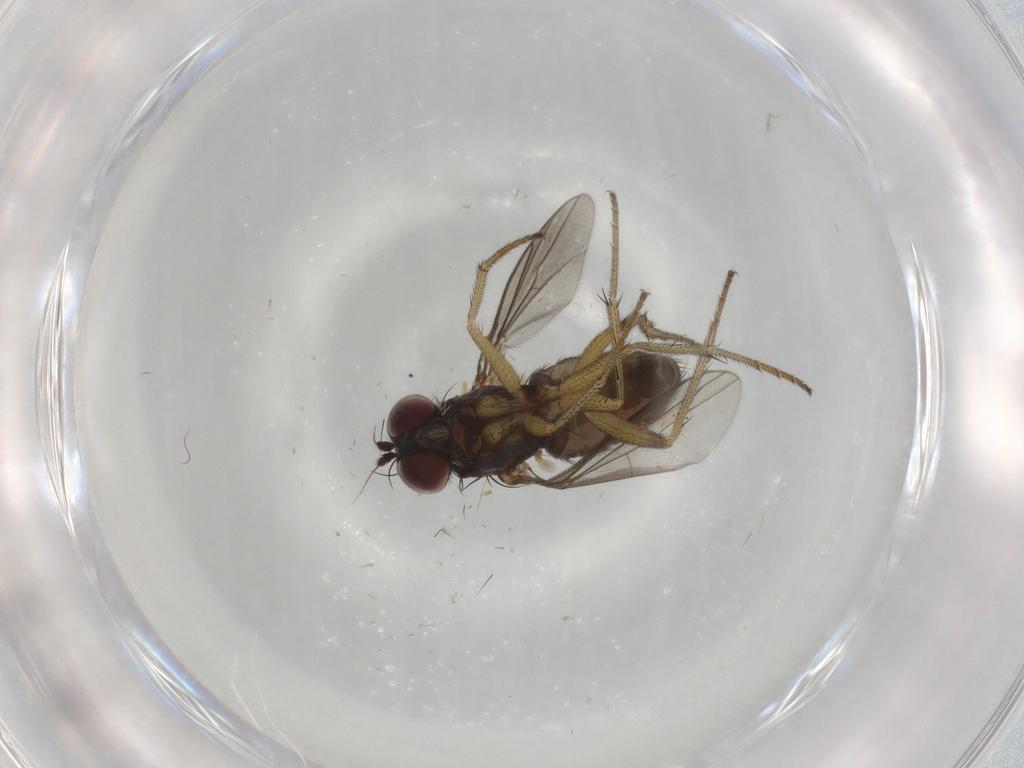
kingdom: Animalia
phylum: Arthropoda
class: Insecta
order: Diptera
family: Dolichopodidae
